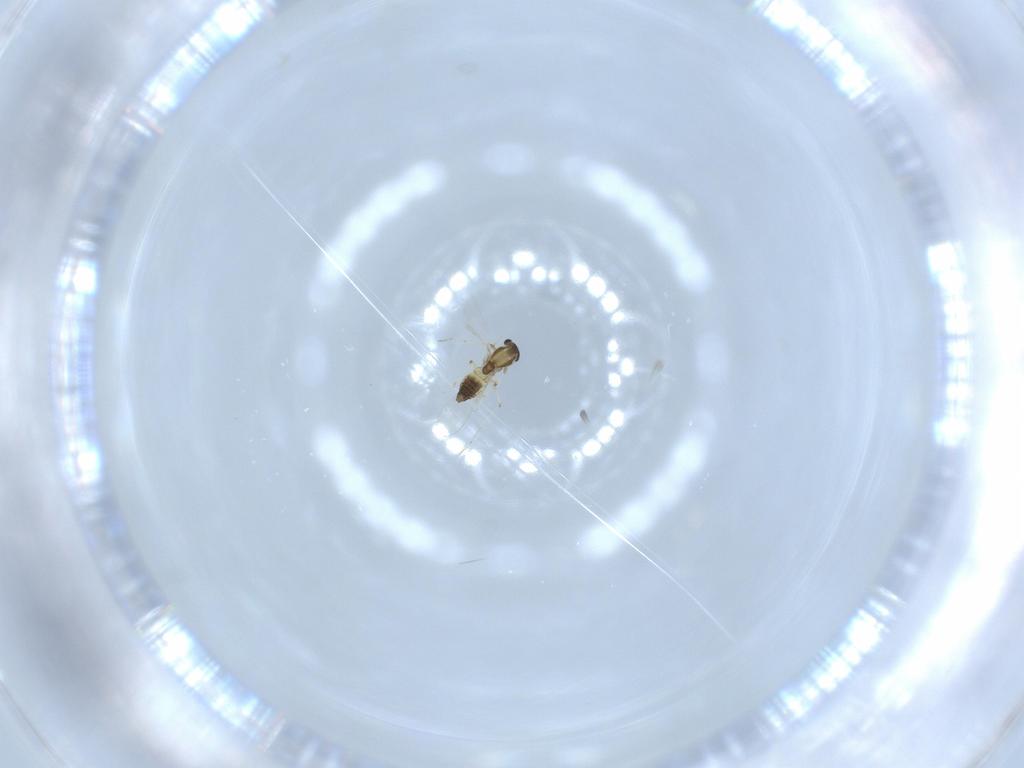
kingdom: Animalia
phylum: Arthropoda
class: Insecta
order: Diptera
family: Chironomidae
